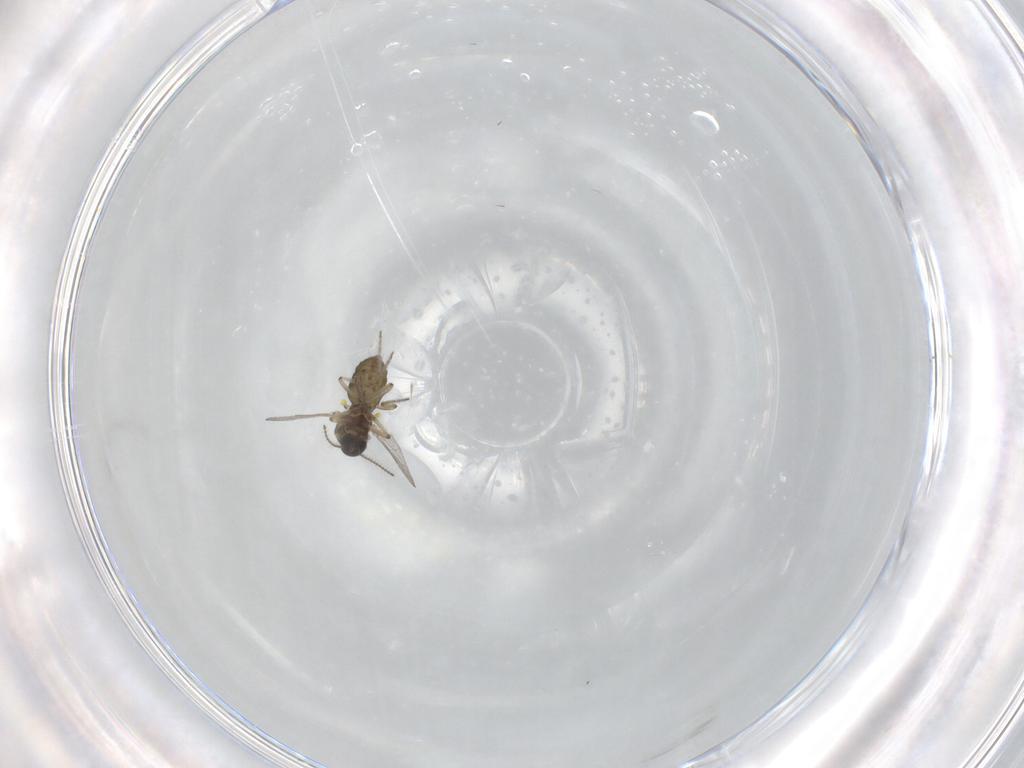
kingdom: Animalia
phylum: Arthropoda
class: Insecta
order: Diptera
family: Ceratopogonidae
